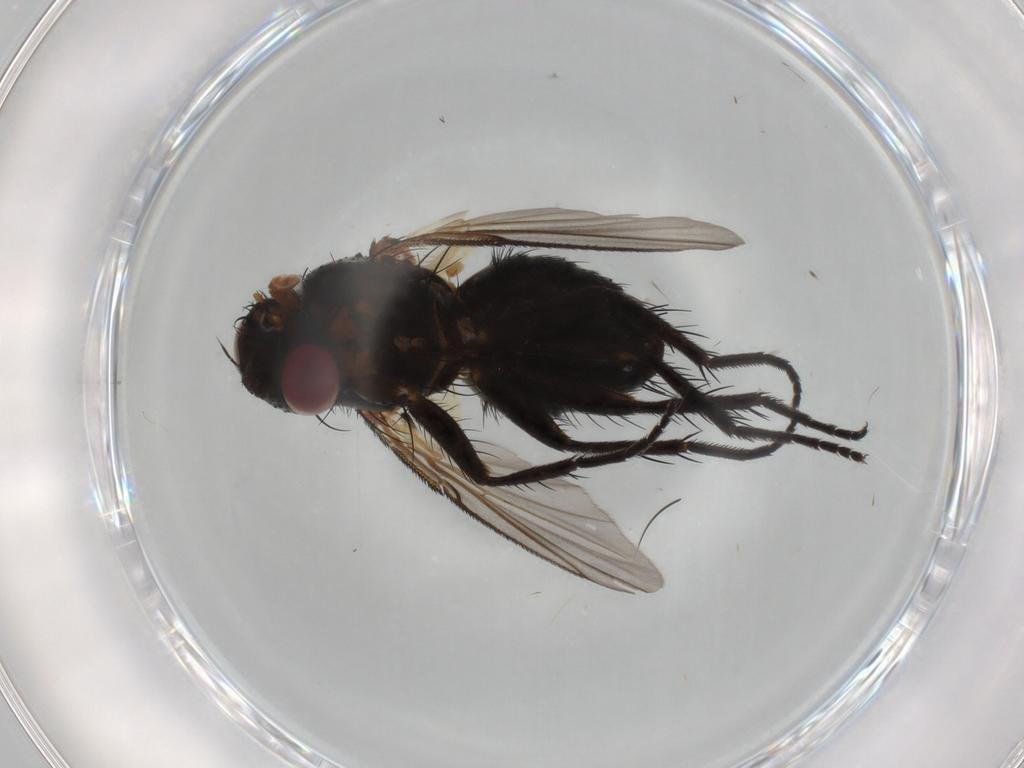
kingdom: Animalia
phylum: Arthropoda
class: Insecta
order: Diptera
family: Tachinidae
